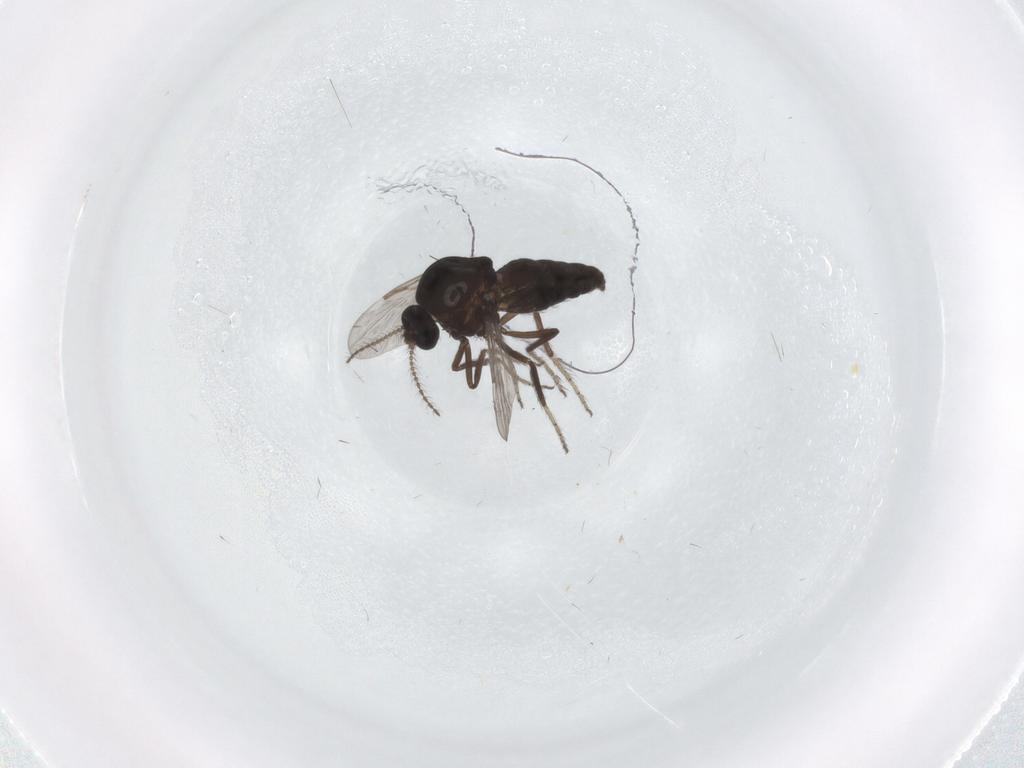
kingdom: Animalia
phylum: Arthropoda
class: Insecta
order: Diptera
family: Ceratopogonidae
